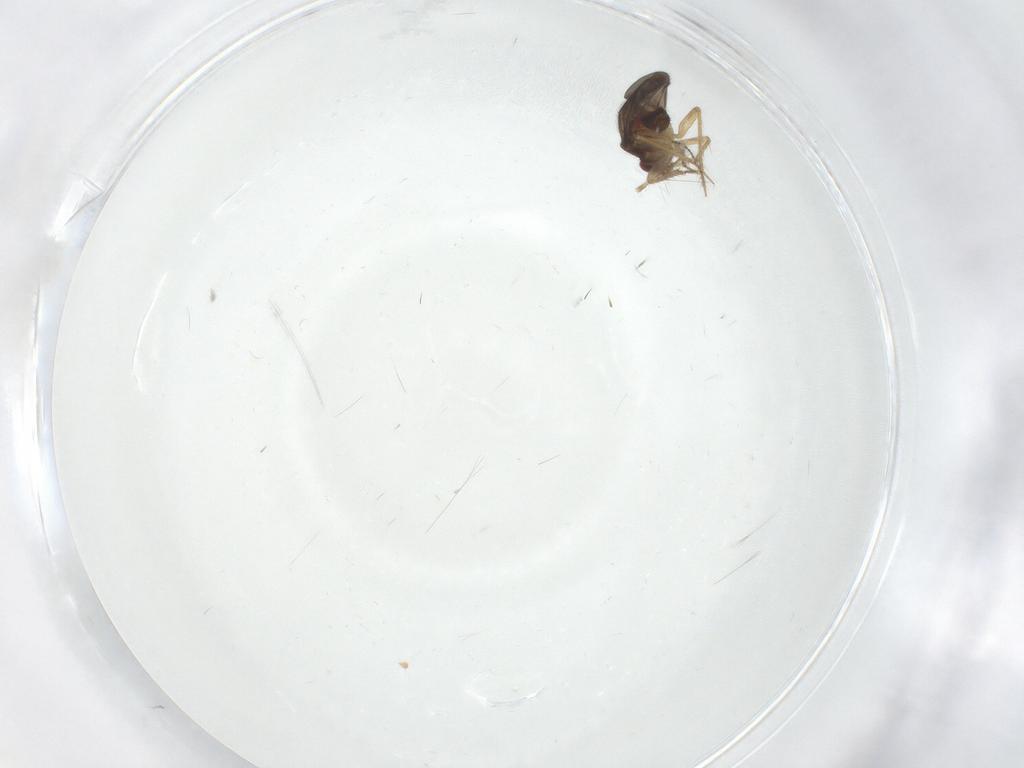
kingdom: Animalia
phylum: Arthropoda
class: Insecta
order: Hemiptera
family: Ceratocombidae
